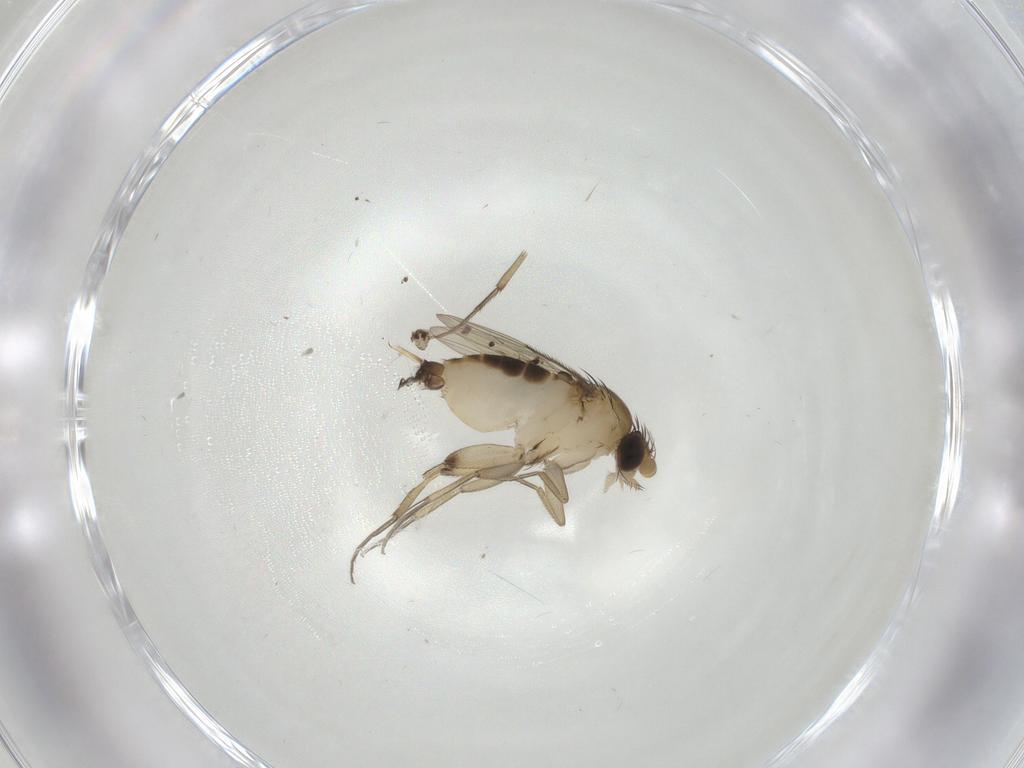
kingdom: Animalia
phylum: Arthropoda
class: Insecta
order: Diptera
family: Phoridae
